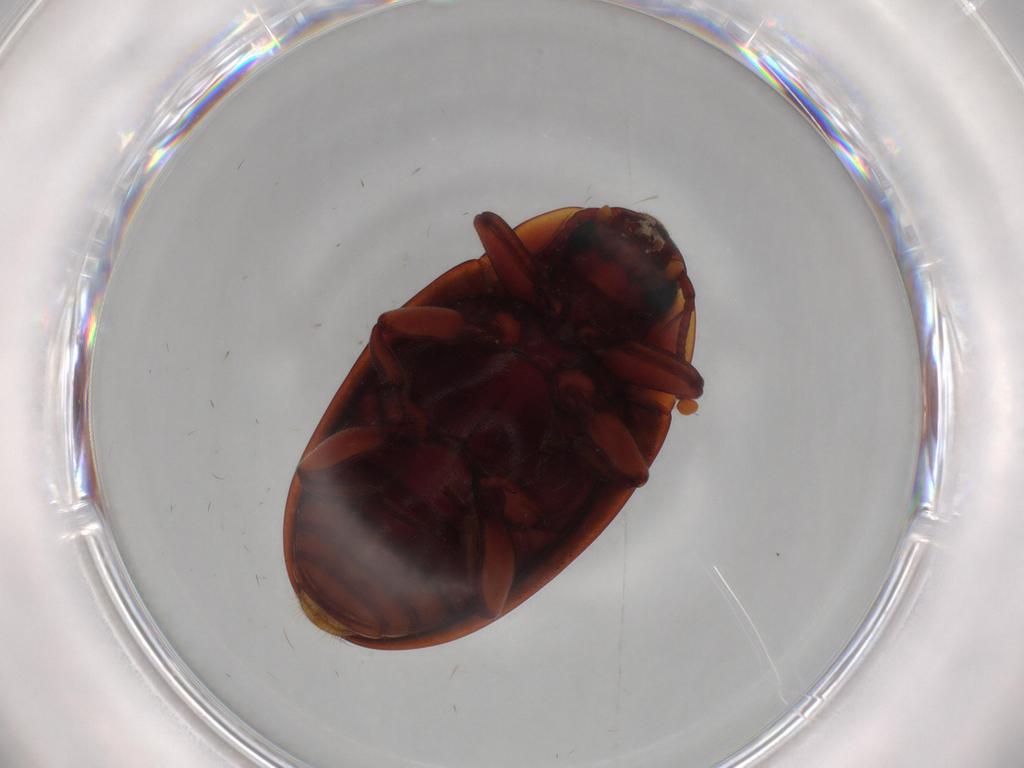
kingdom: Animalia
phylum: Arthropoda
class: Insecta
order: Coleoptera
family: Zopheridae
